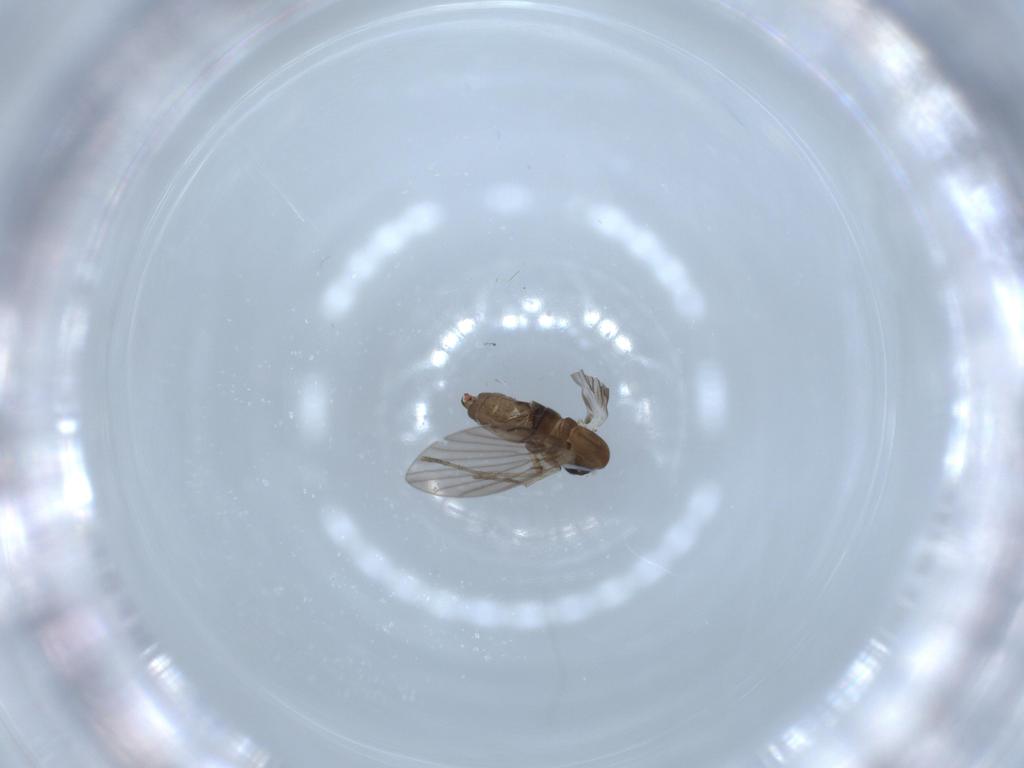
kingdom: Animalia
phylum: Arthropoda
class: Insecta
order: Diptera
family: Psychodidae
